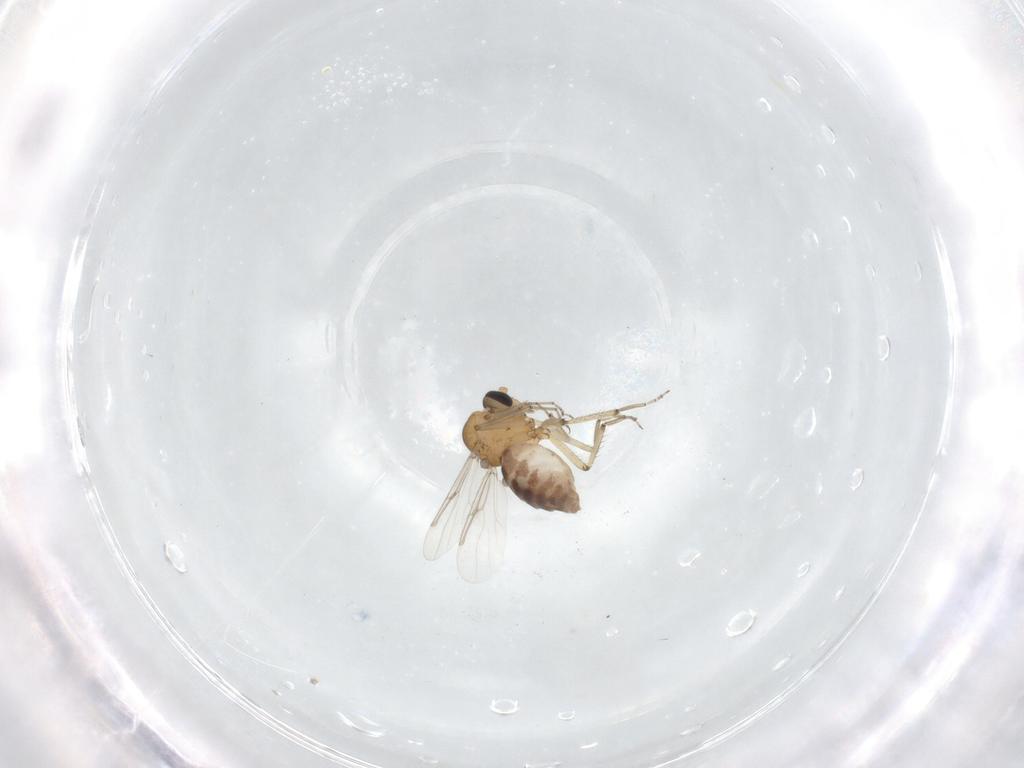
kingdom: Animalia
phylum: Arthropoda
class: Insecta
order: Diptera
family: Ceratopogonidae
